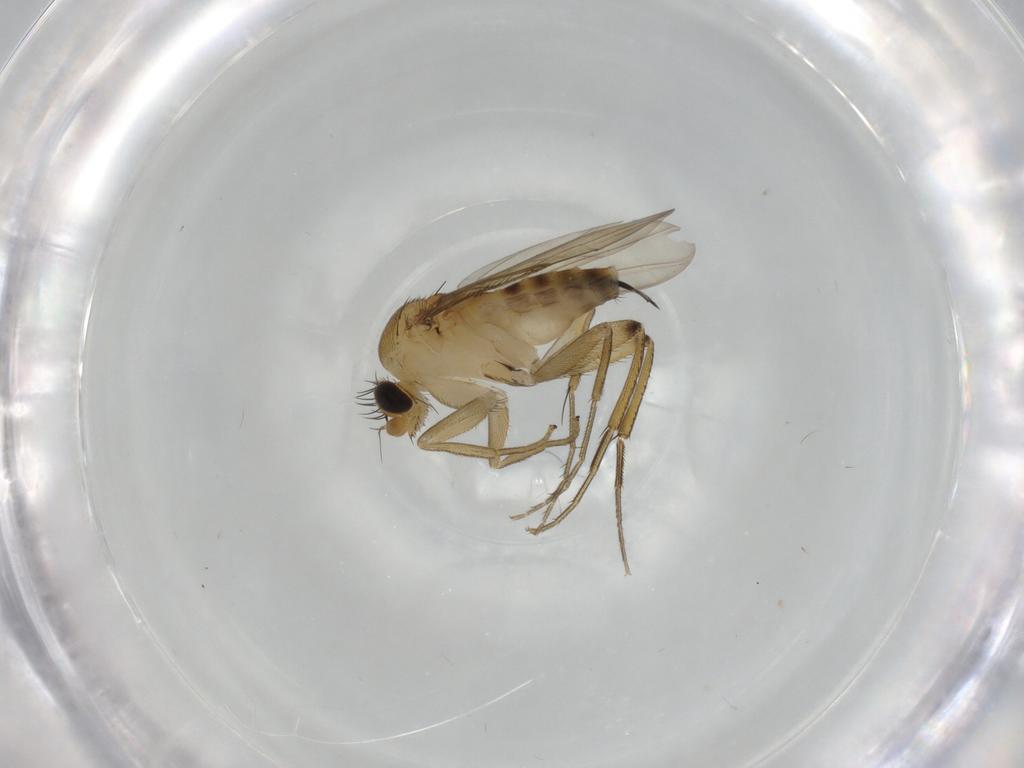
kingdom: Animalia
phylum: Arthropoda
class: Insecta
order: Diptera
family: Phoridae
